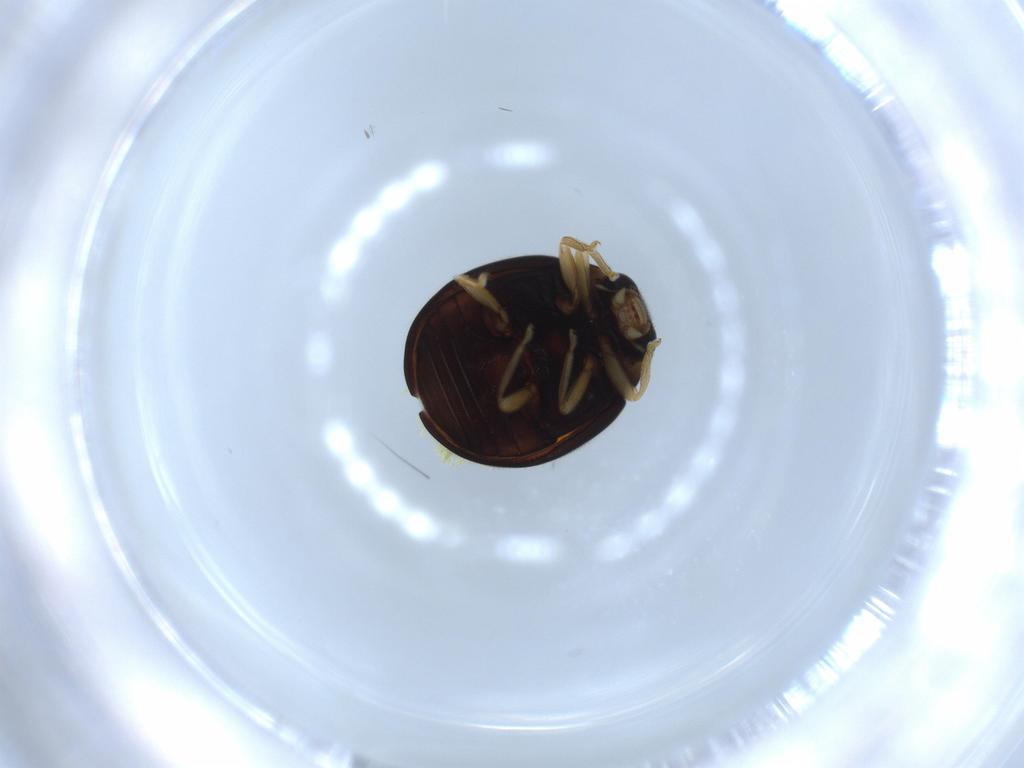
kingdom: Animalia
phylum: Arthropoda
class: Insecta
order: Coleoptera
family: Coccinellidae
